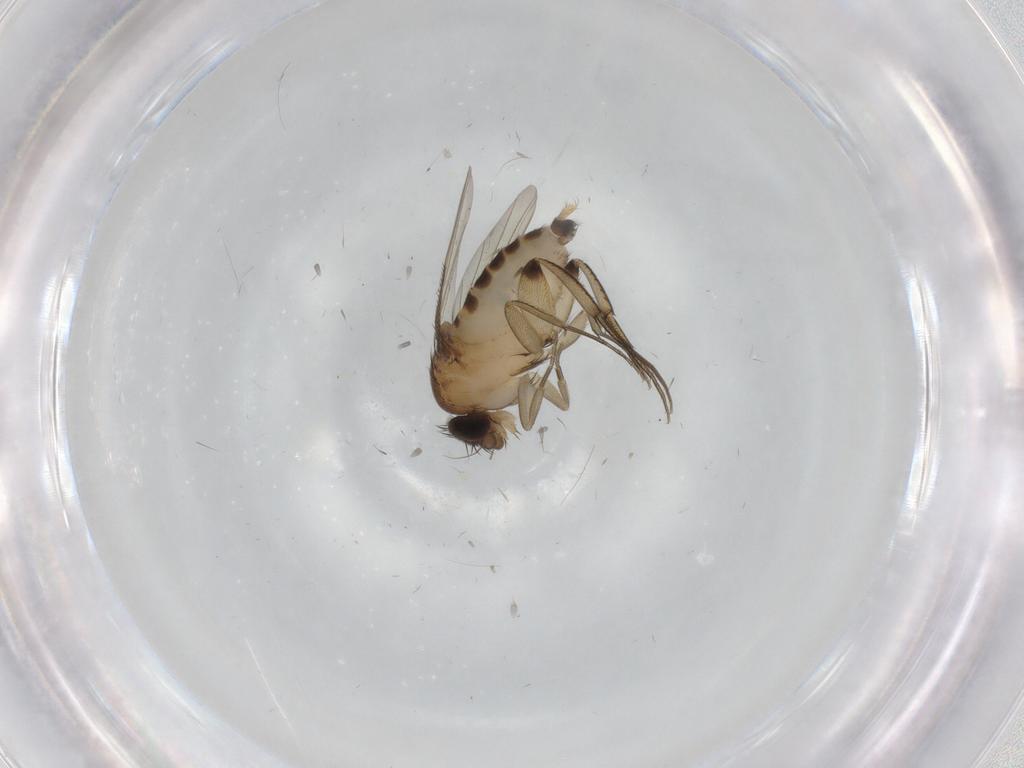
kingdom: Animalia
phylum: Arthropoda
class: Insecta
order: Diptera
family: Phoridae
